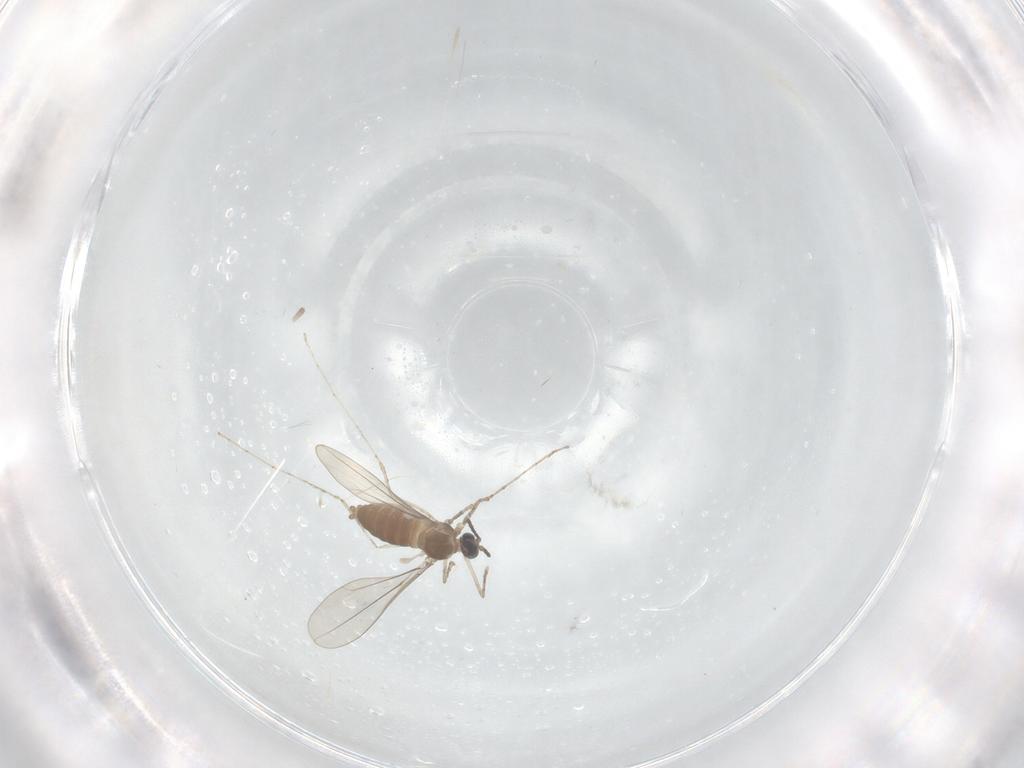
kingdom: Animalia
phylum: Arthropoda
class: Insecta
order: Diptera
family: Cecidomyiidae
